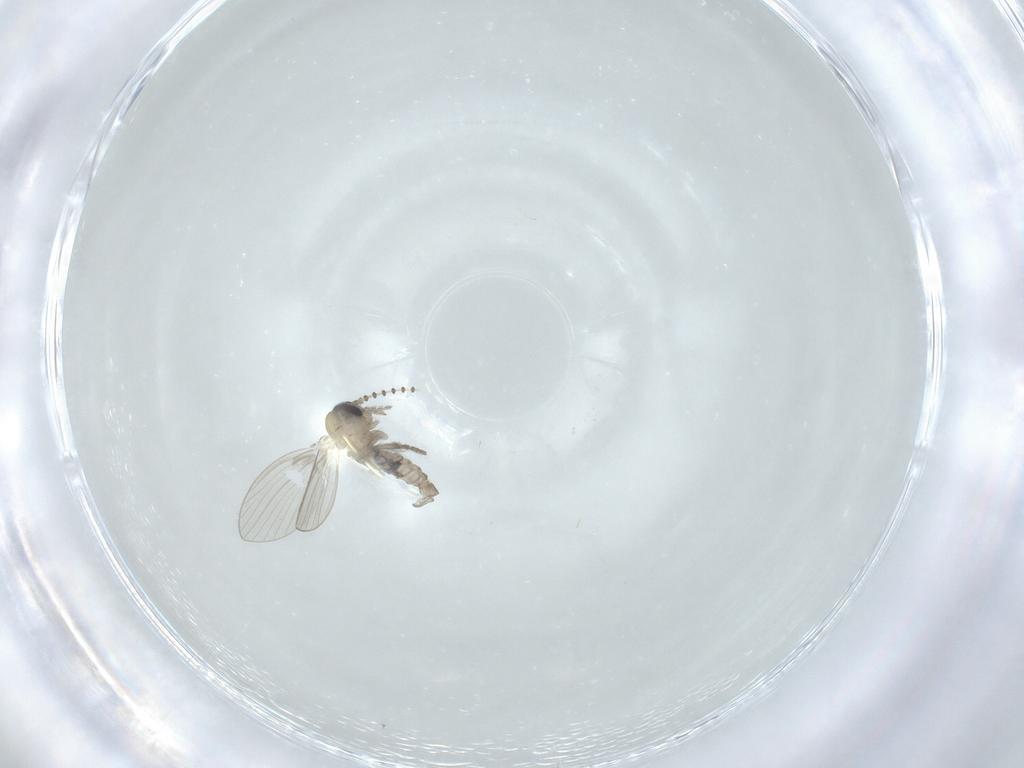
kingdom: Animalia
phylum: Arthropoda
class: Insecta
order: Diptera
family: Psychodidae
